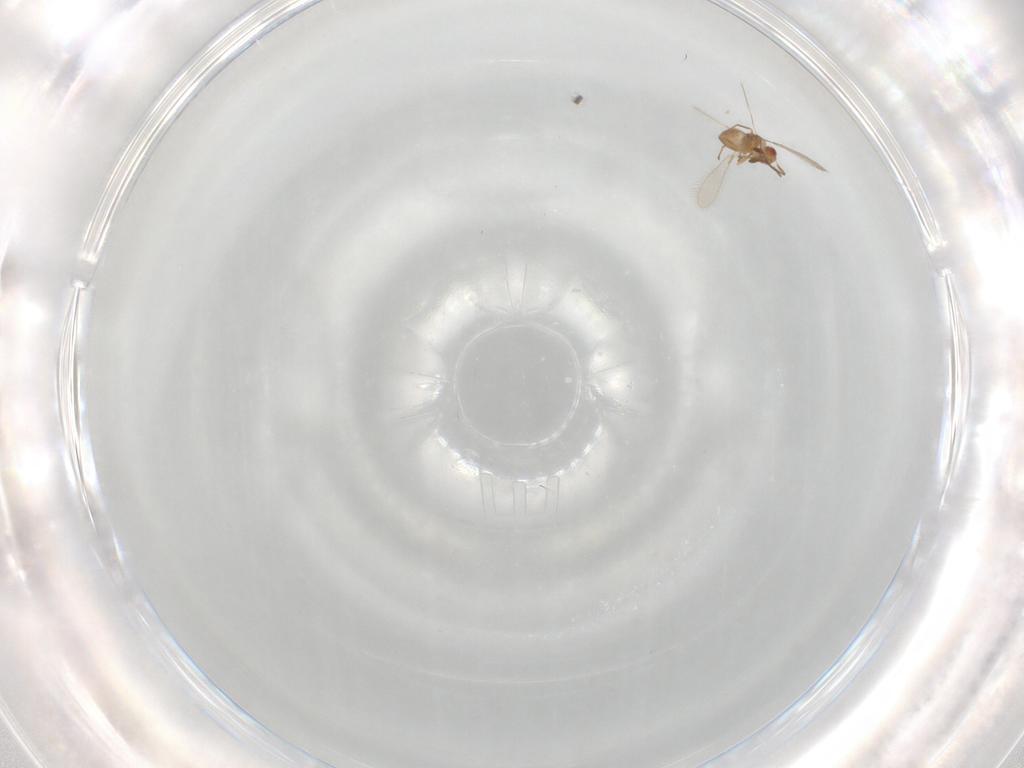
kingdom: Animalia
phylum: Arthropoda
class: Insecta
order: Hymenoptera
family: Mymaridae
